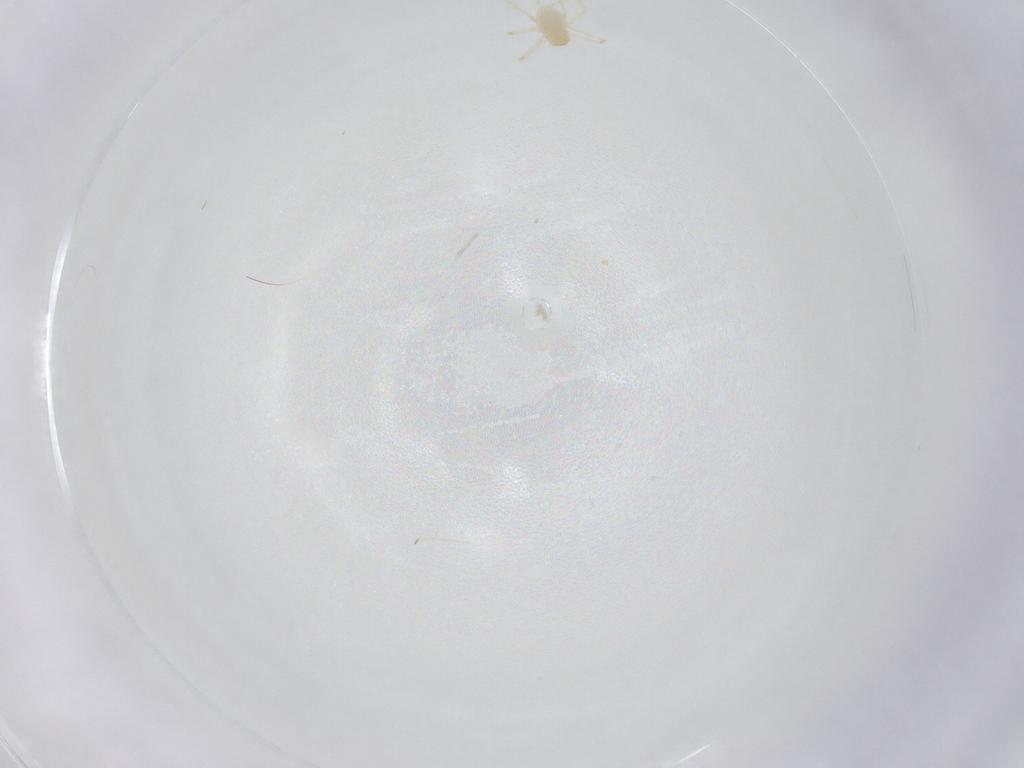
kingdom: Animalia
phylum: Arthropoda
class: Arachnida
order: Trombidiformes
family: Erythraeidae
